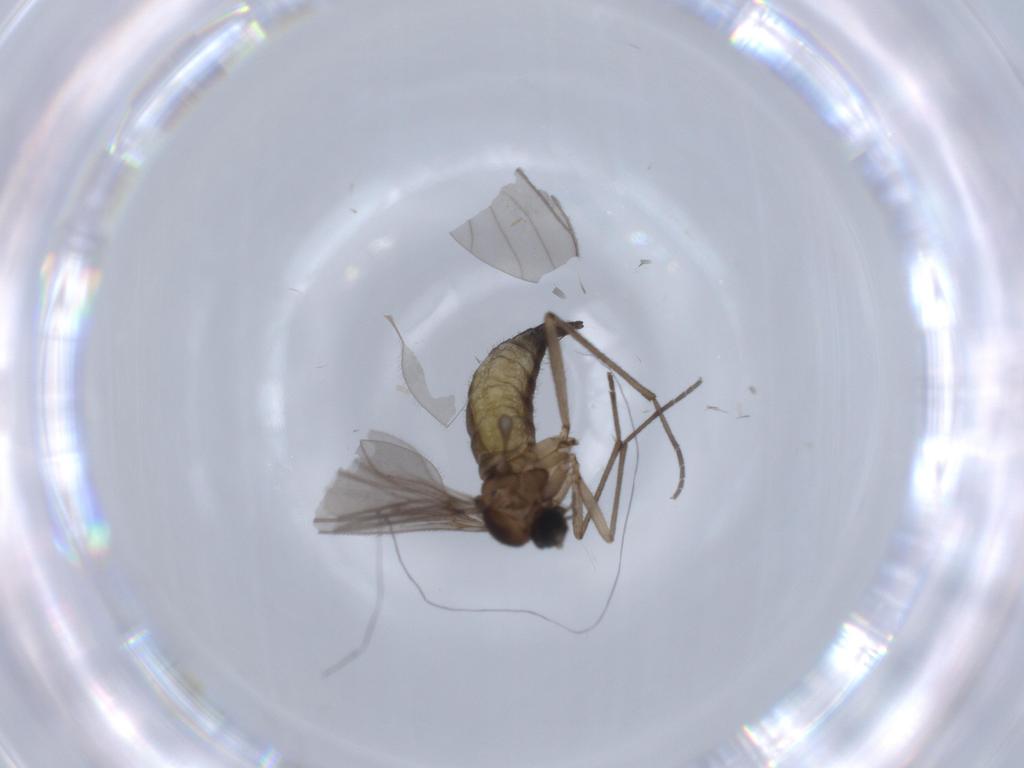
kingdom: Animalia
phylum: Arthropoda
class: Insecta
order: Diptera
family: Sciaridae
